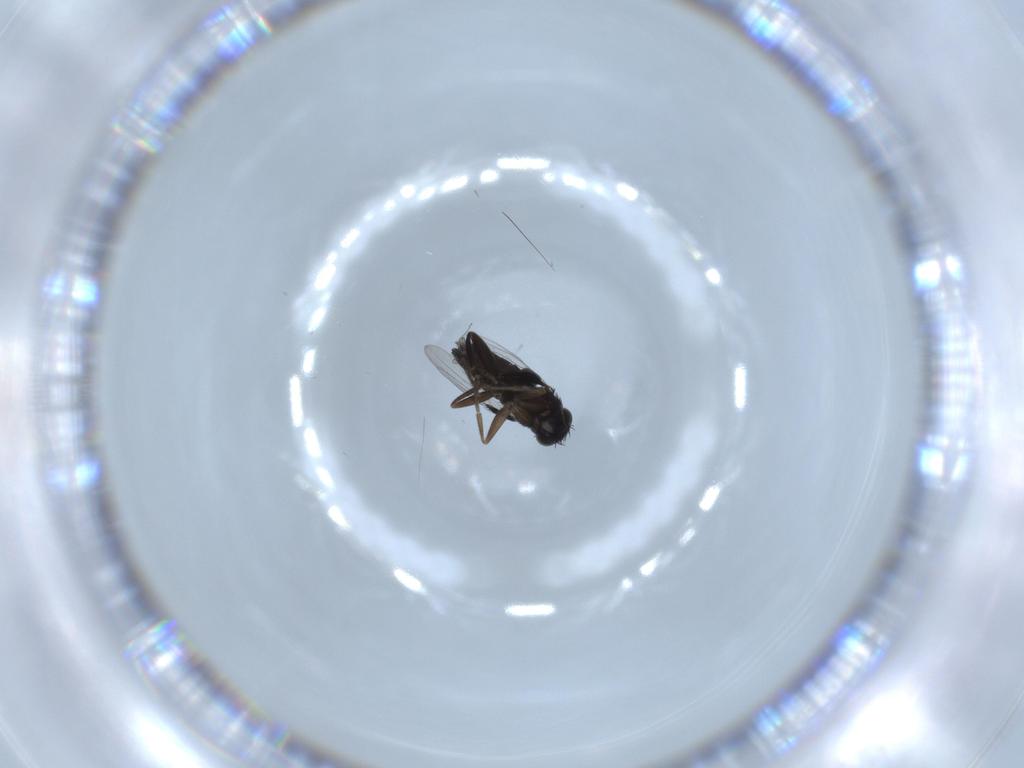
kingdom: Animalia
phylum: Arthropoda
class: Insecta
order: Diptera
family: Phoridae
